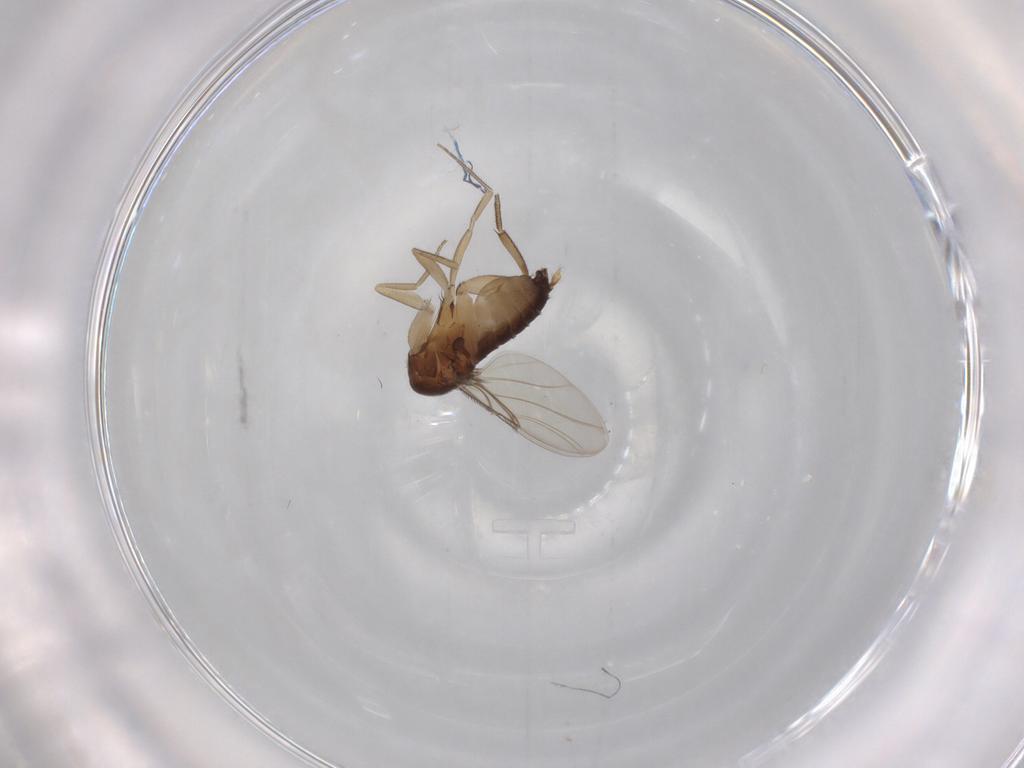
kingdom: Animalia
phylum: Arthropoda
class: Insecta
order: Diptera
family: Phoridae
